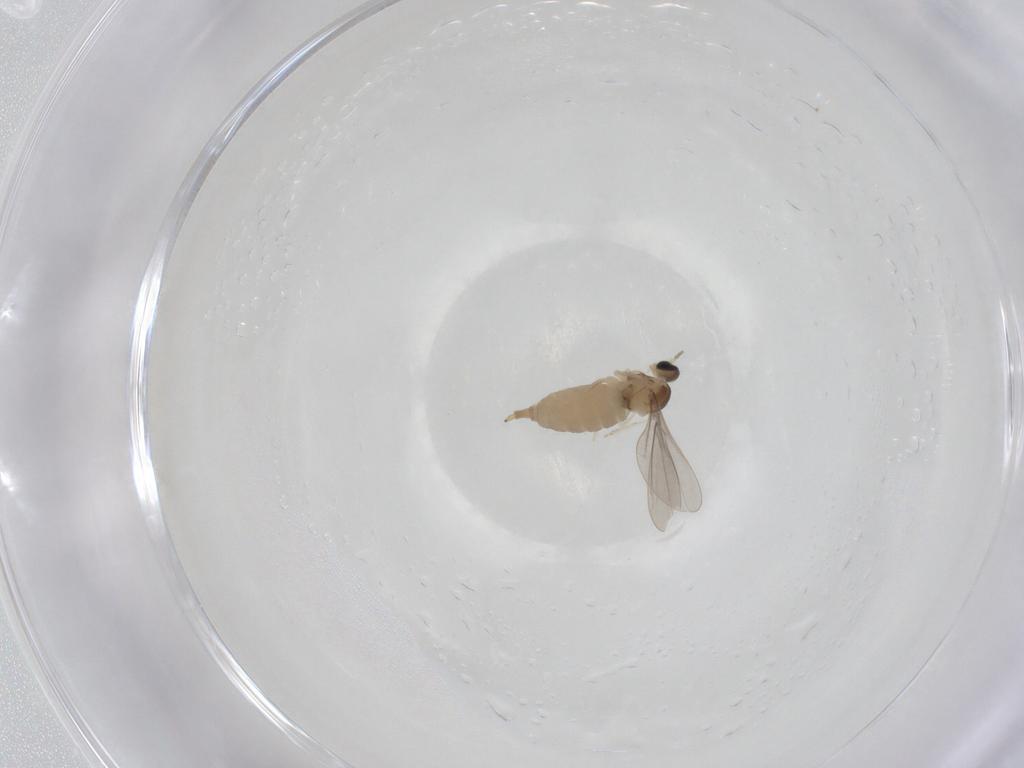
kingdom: Animalia
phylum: Arthropoda
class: Insecta
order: Diptera
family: Cecidomyiidae
